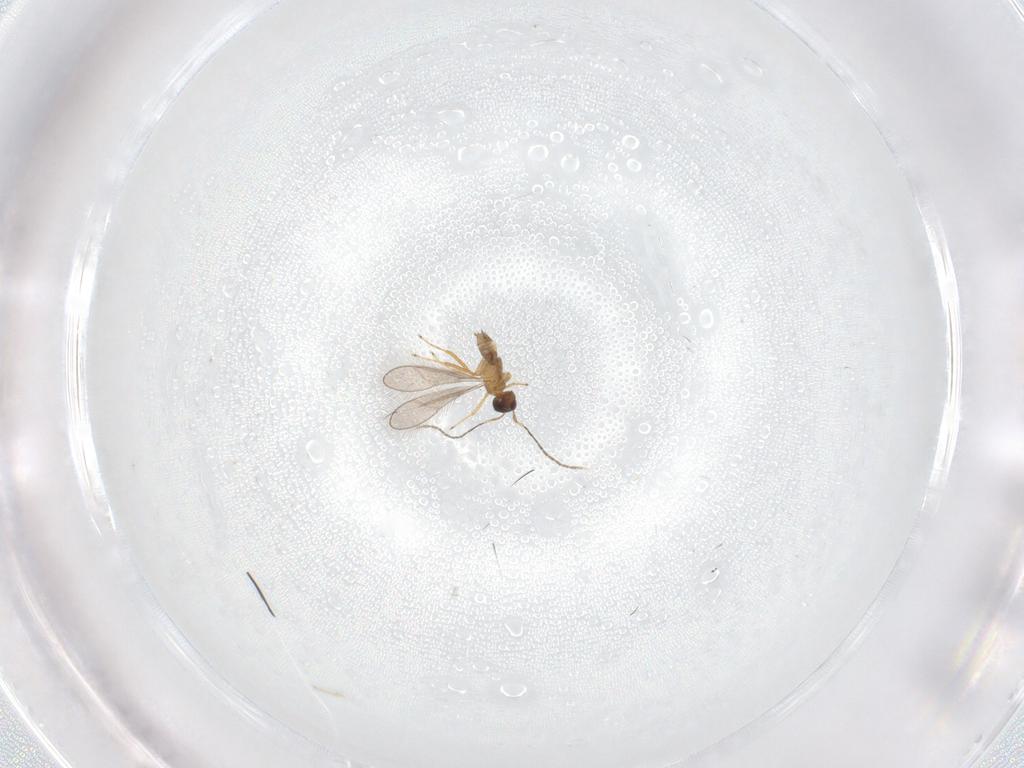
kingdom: Animalia
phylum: Arthropoda
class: Insecta
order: Hymenoptera
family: Mymaridae
